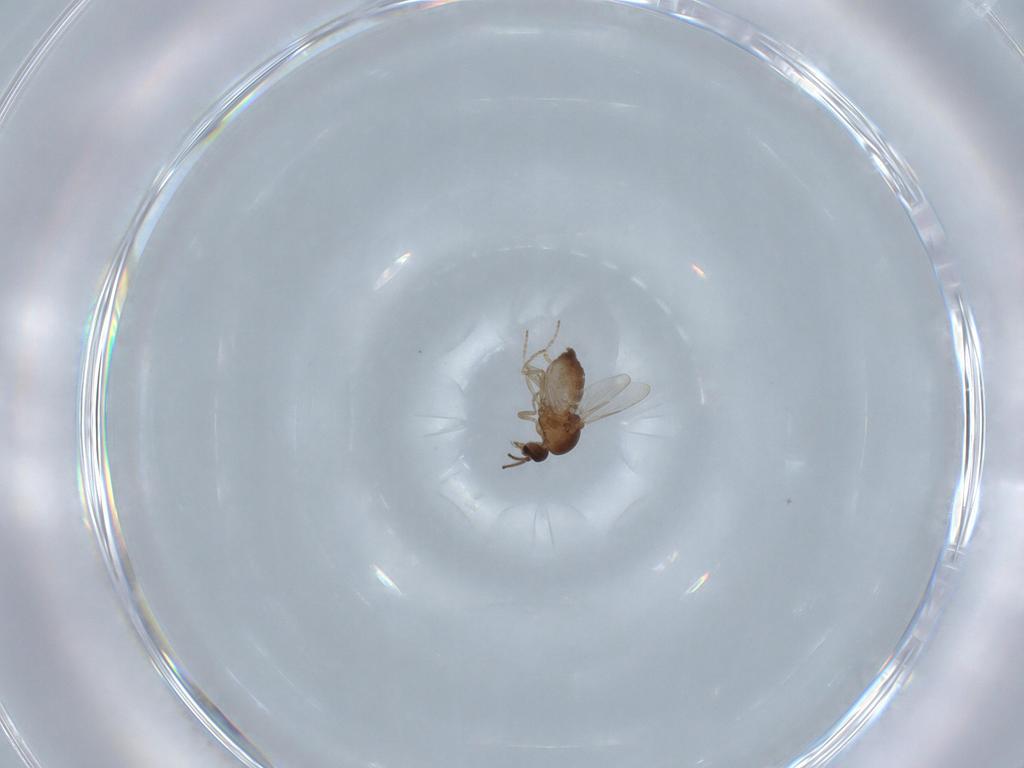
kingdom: Animalia
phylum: Arthropoda
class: Insecta
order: Diptera
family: Ceratopogonidae
